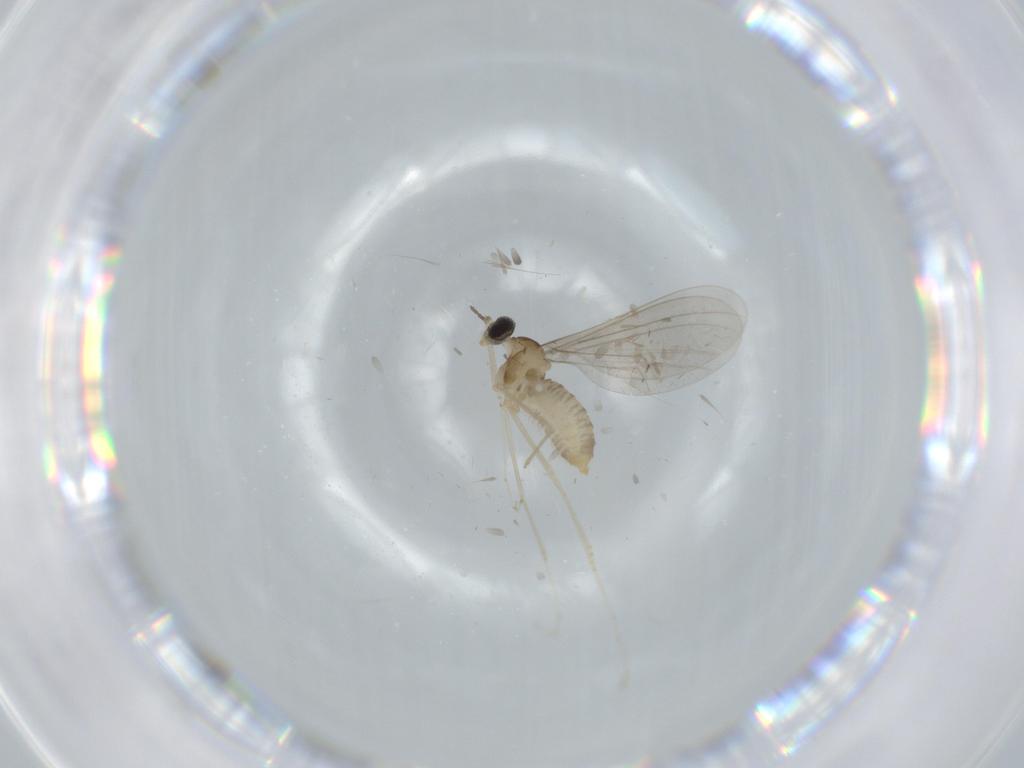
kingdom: Animalia
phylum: Arthropoda
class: Insecta
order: Diptera
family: Cecidomyiidae
